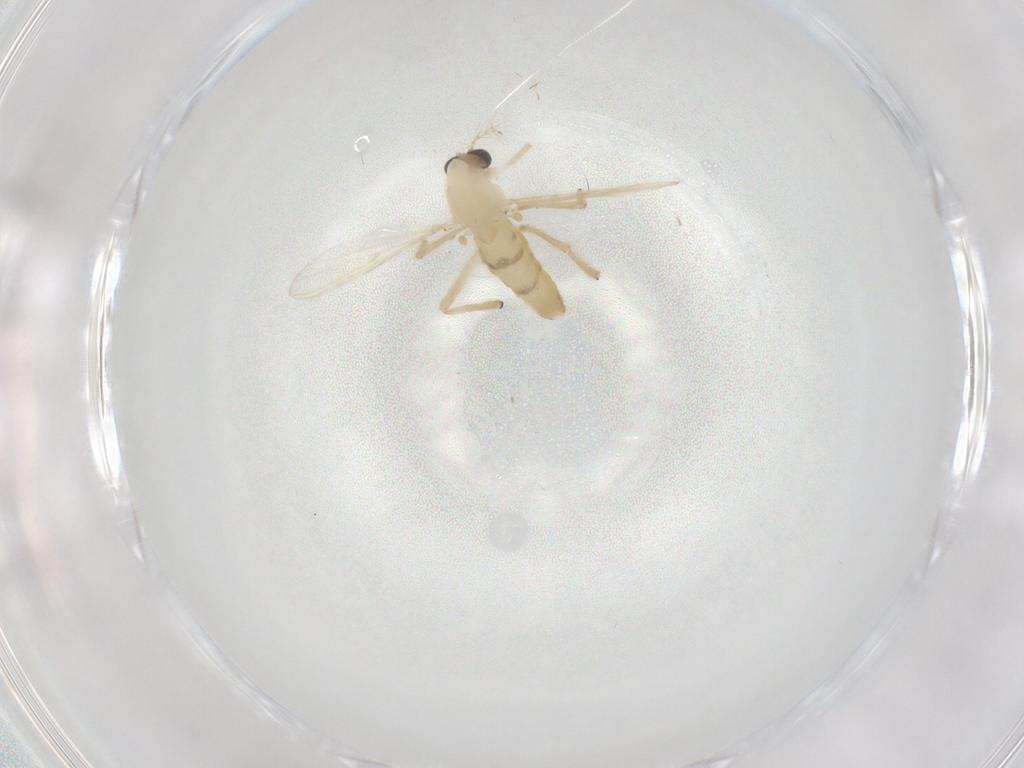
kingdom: Animalia
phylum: Arthropoda
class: Insecta
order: Diptera
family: Chironomidae
